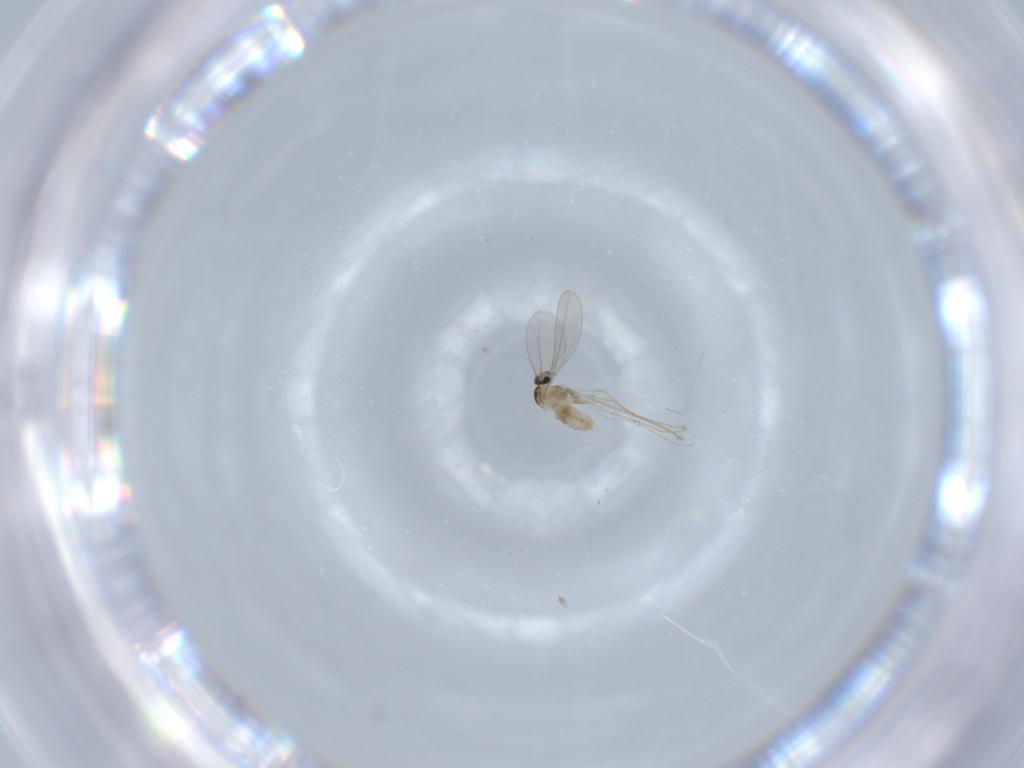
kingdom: Animalia
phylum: Arthropoda
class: Insecta
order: Diptera
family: Cecidomyiidae
